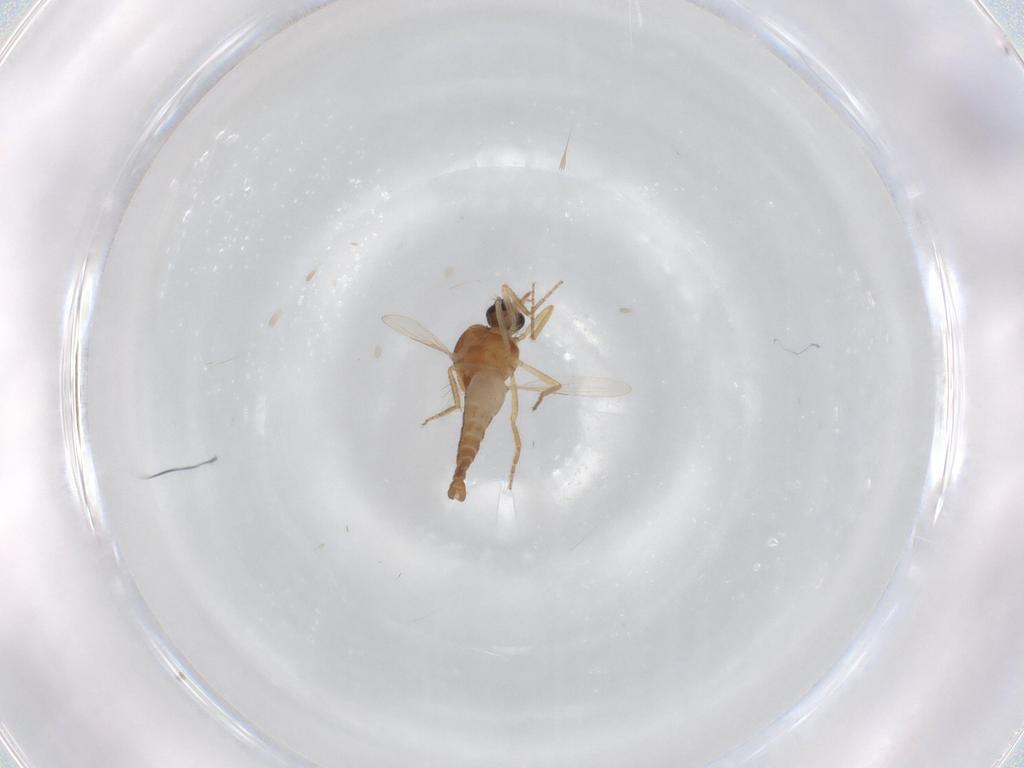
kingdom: Animalia
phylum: Arthropoda
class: Insecta
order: Diptera
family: Ceratopogonidae
